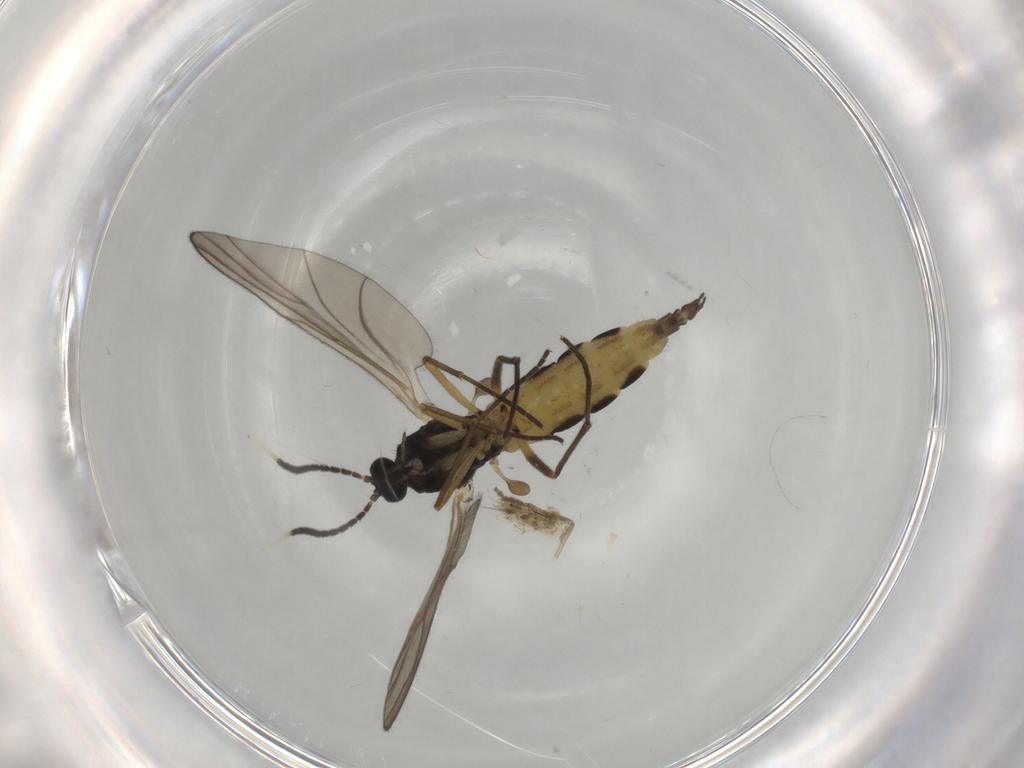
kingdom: Animalia
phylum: Arthropoda
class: Insecta
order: Diptera
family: Sciaridae
